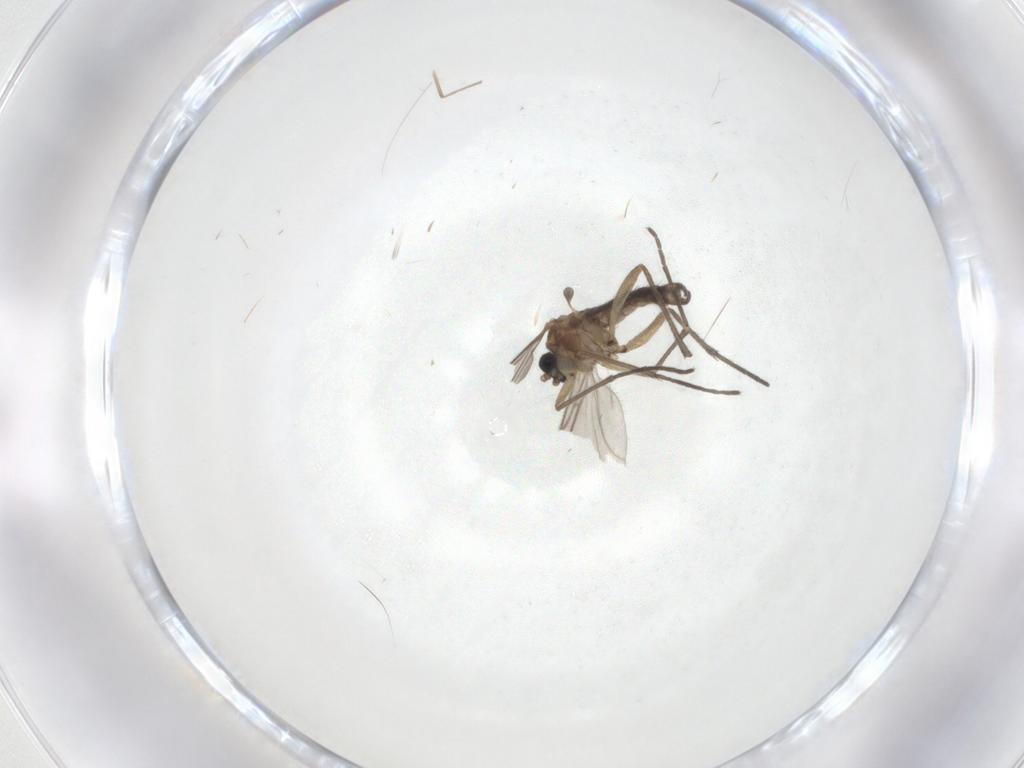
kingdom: Animalia
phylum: Arthropoda
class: Insecta
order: Diptera
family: Sciaridae
